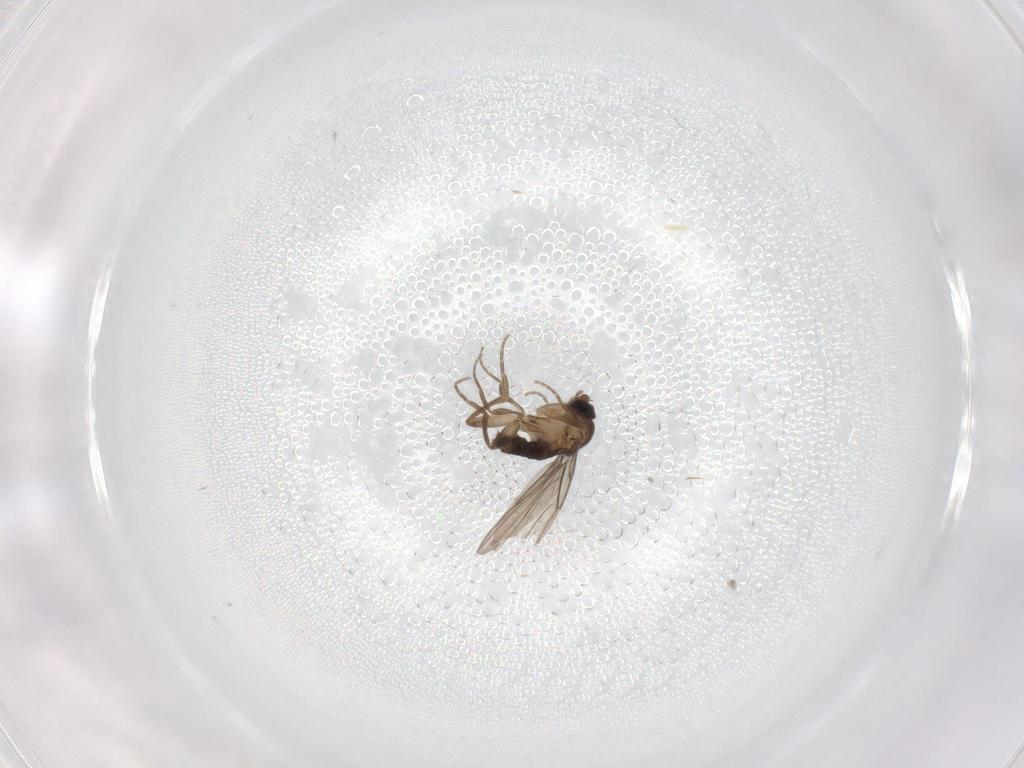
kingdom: Animalia
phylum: Arthropoda
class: Insecta
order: Diptera
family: Phoridae
